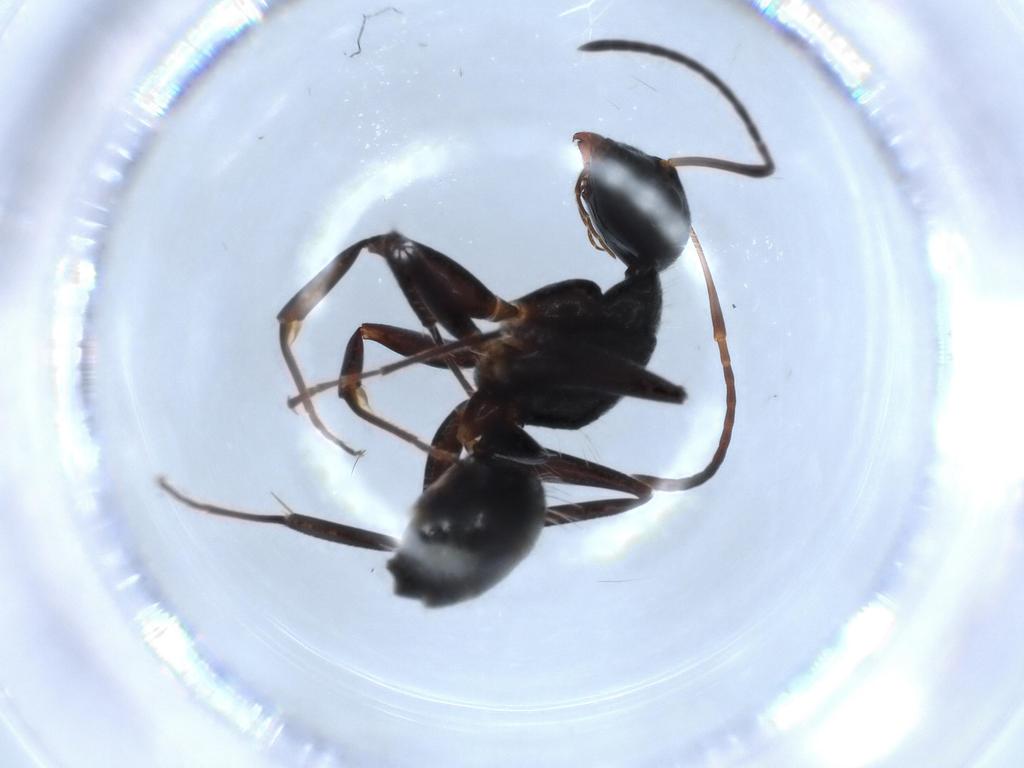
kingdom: Animalia
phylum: Arthropoda
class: Insecta
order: Hymenoptera
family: Formicidae
